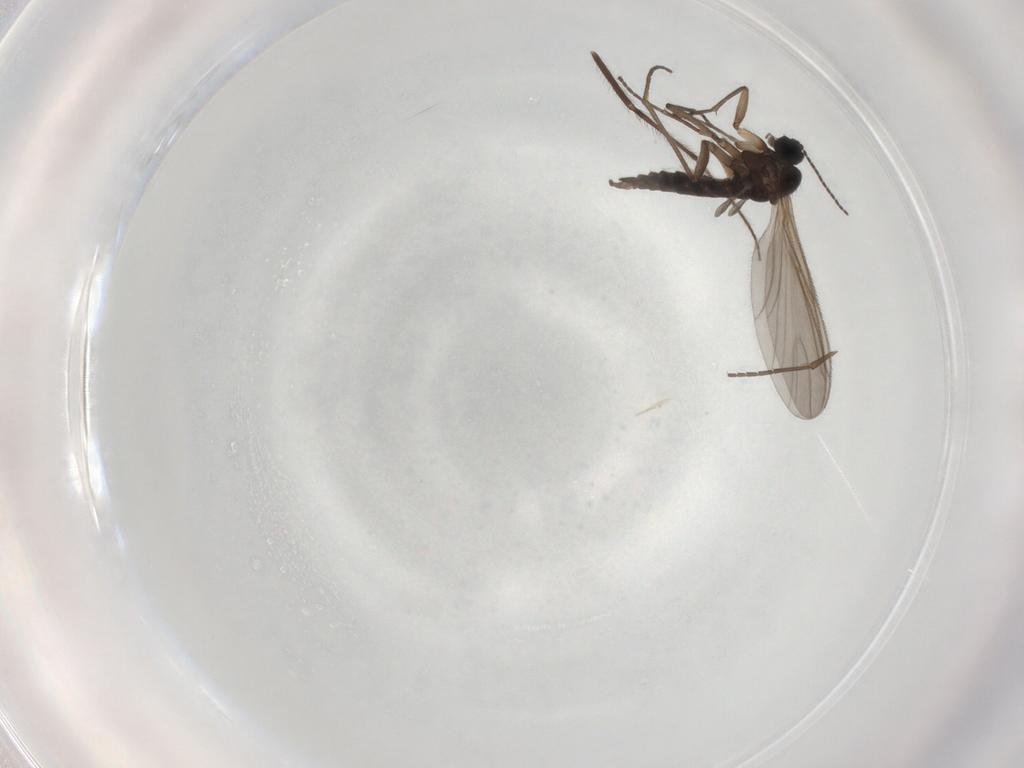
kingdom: Animalia
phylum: Arthropoda
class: Insecta
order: Diptera
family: Sciaridae
